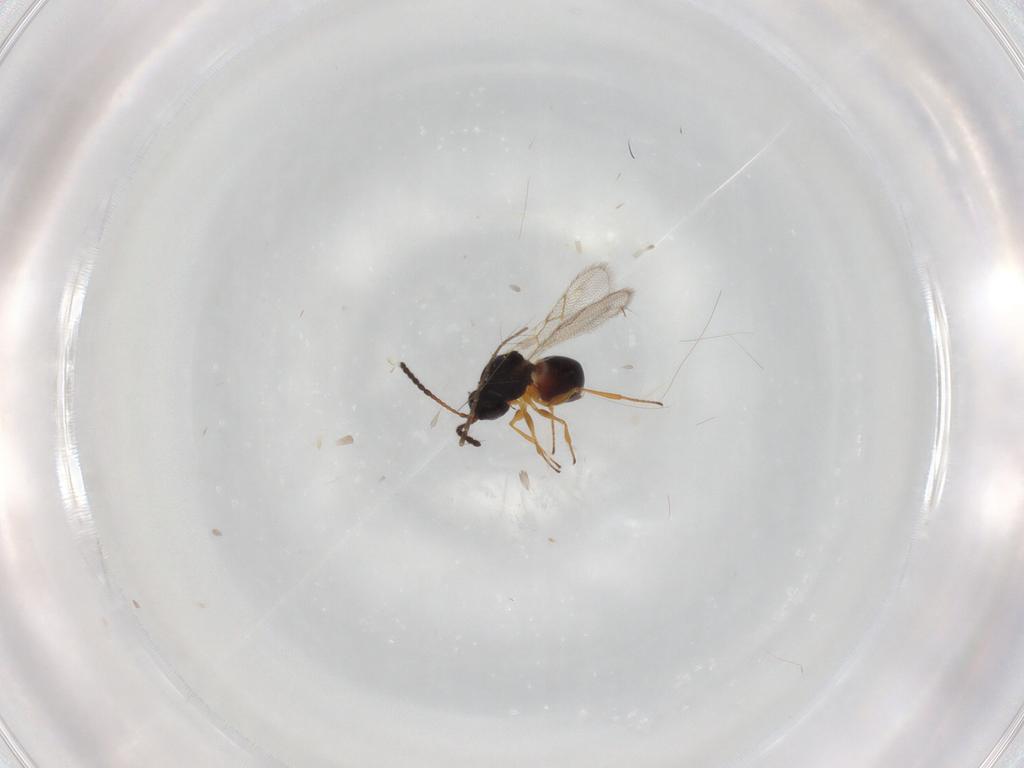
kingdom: Animalia
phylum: Arthropoda
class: Insecta
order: Hymenoptera
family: Figitidae
